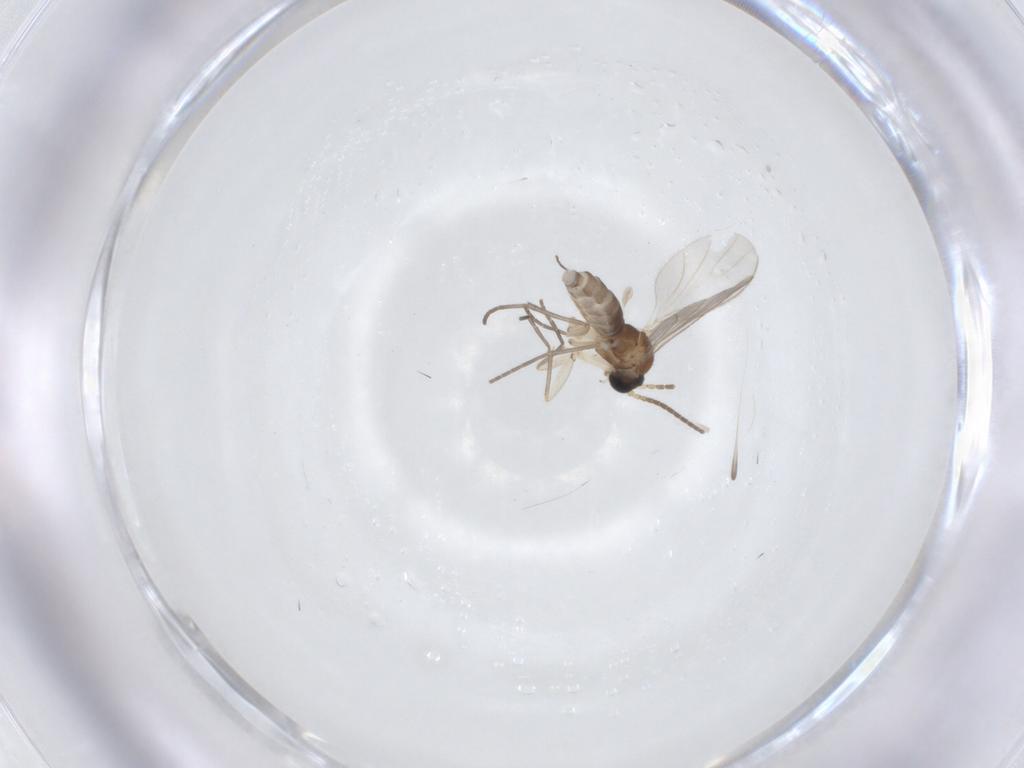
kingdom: Animalia
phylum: Arthropoda
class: Insecta
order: Diptera
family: Sciaridae
